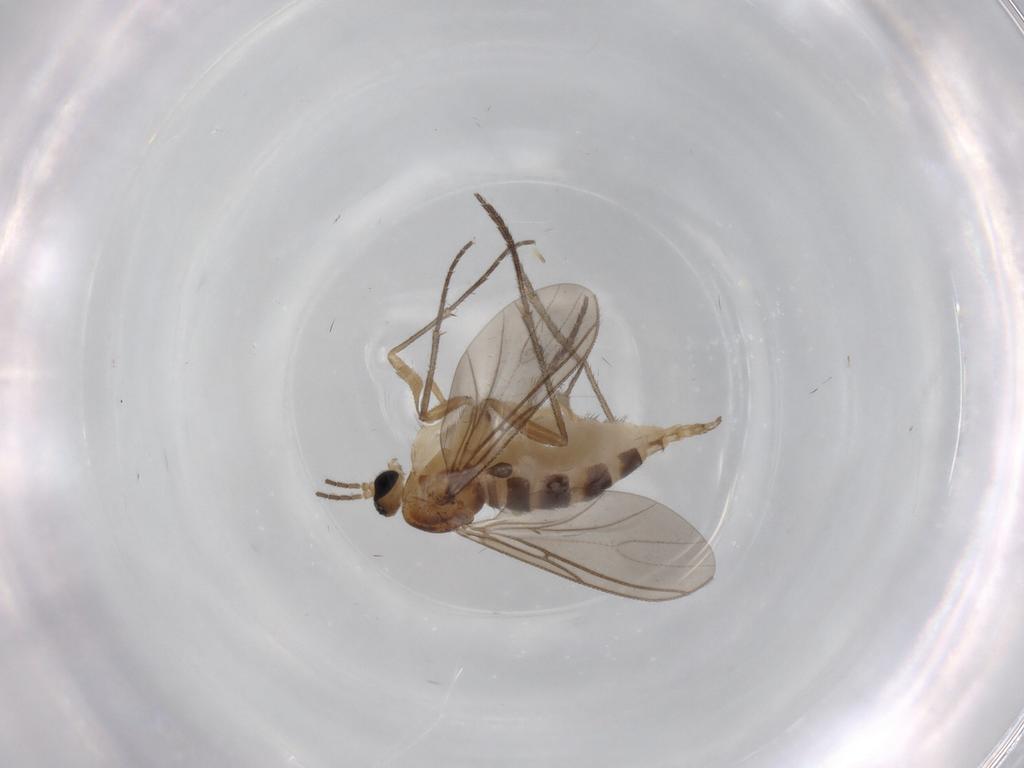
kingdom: Animalia
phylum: Arthropoda
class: Insecta
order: Diptera
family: Sciaridae
